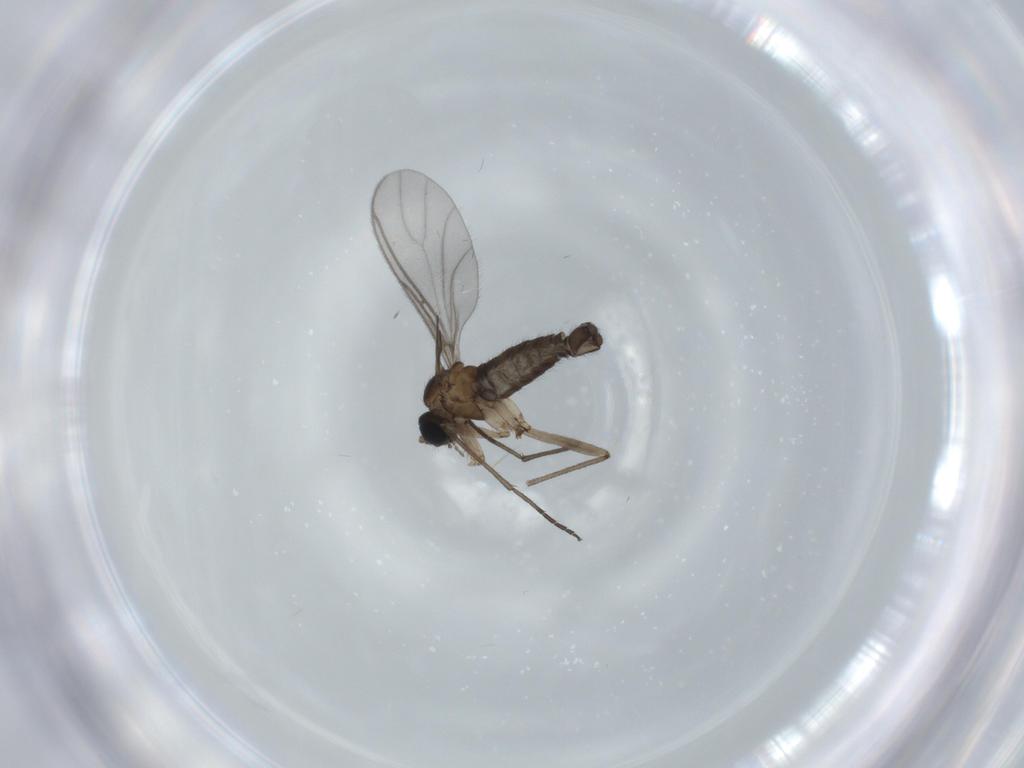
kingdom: Animalia
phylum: Arthropoda
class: Insecta
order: Diptera
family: Sciaridae
